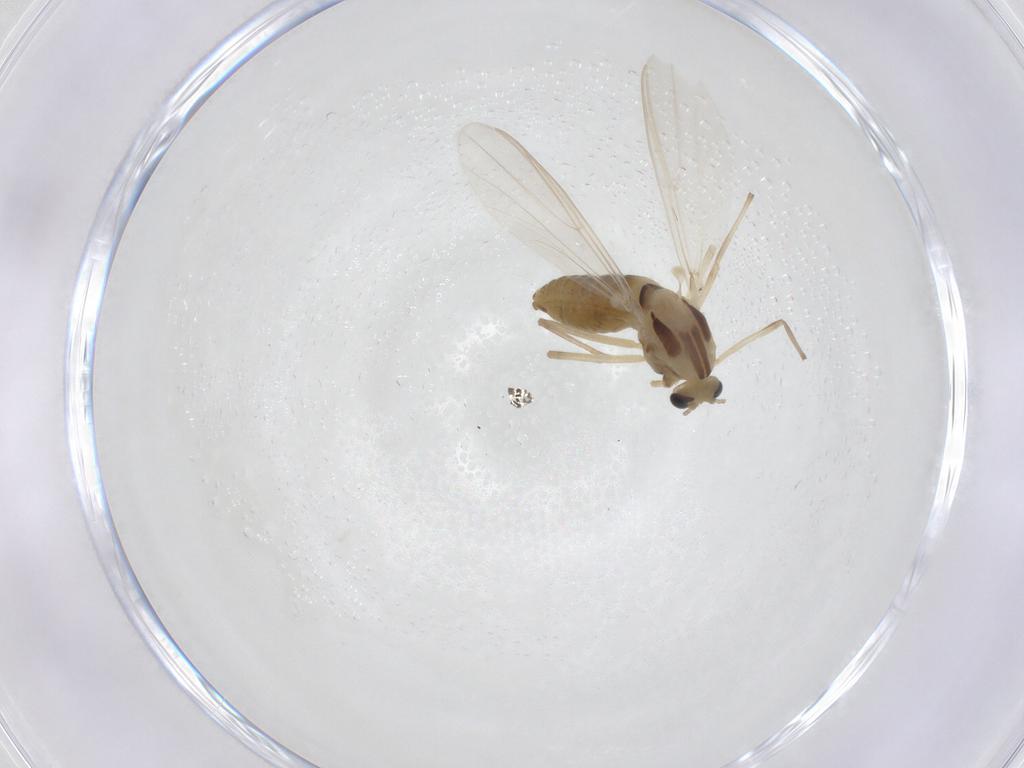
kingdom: Animalia
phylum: Arthropoda
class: Insecta
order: Diptera
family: Chironomidae
